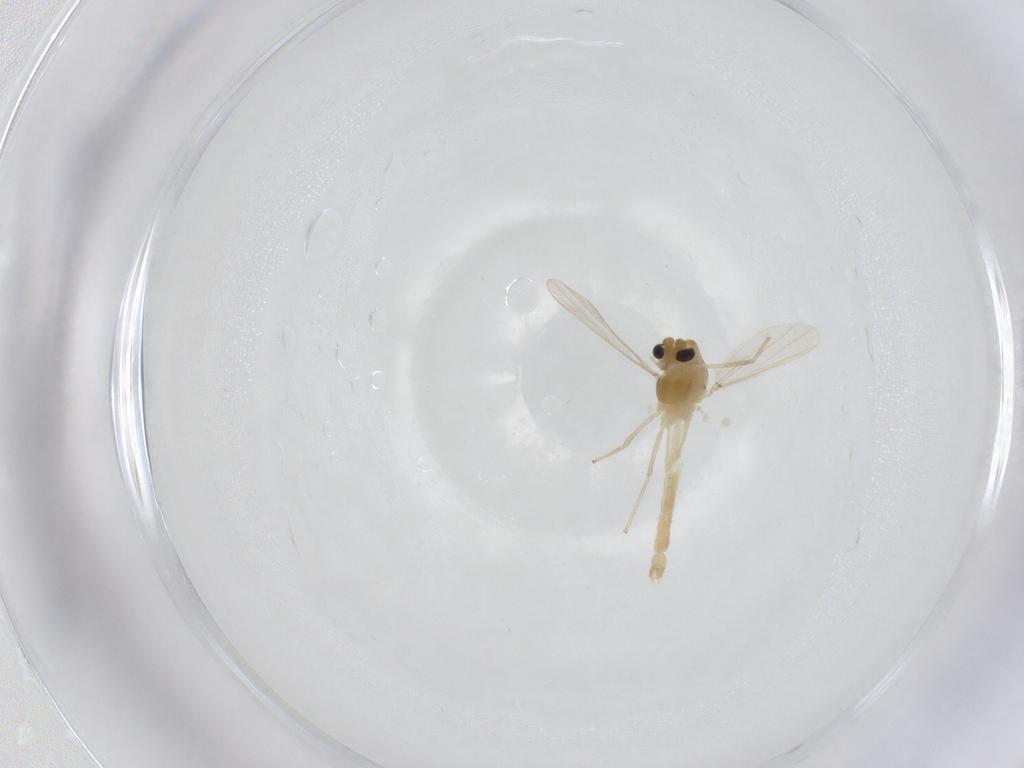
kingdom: Animalia
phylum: Arthropoda
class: Insecta
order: Diptera
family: Chironomidae
